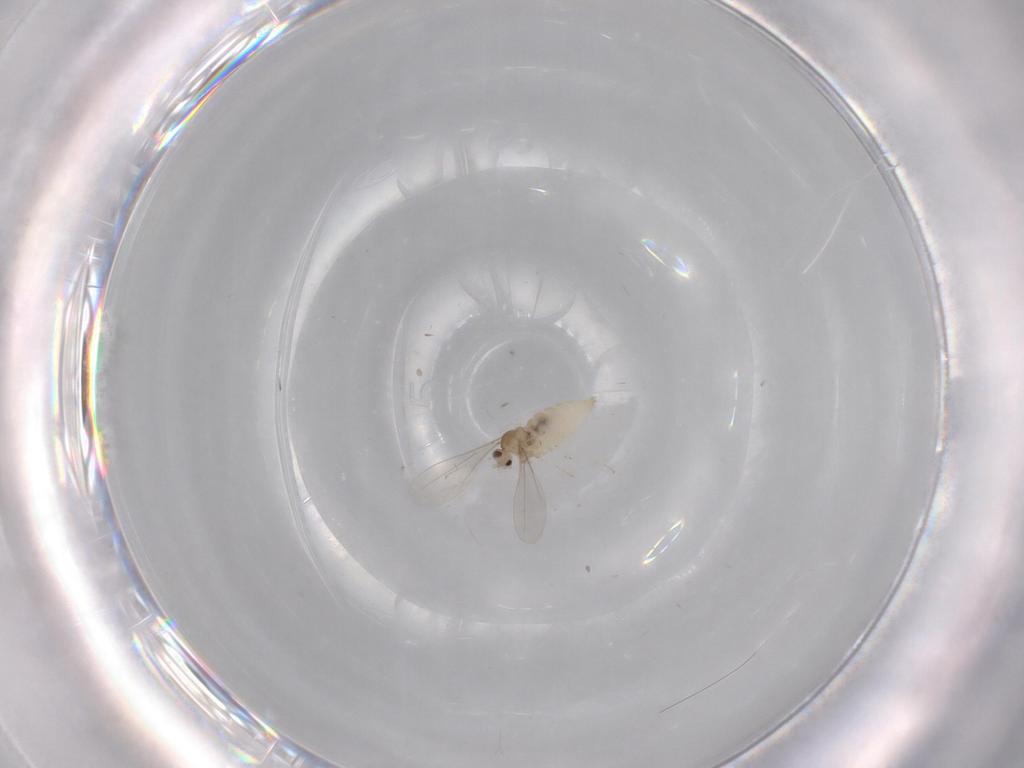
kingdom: Animalia
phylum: Arthropoda
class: Insecta
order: Diptera
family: Cecidomyiidae
